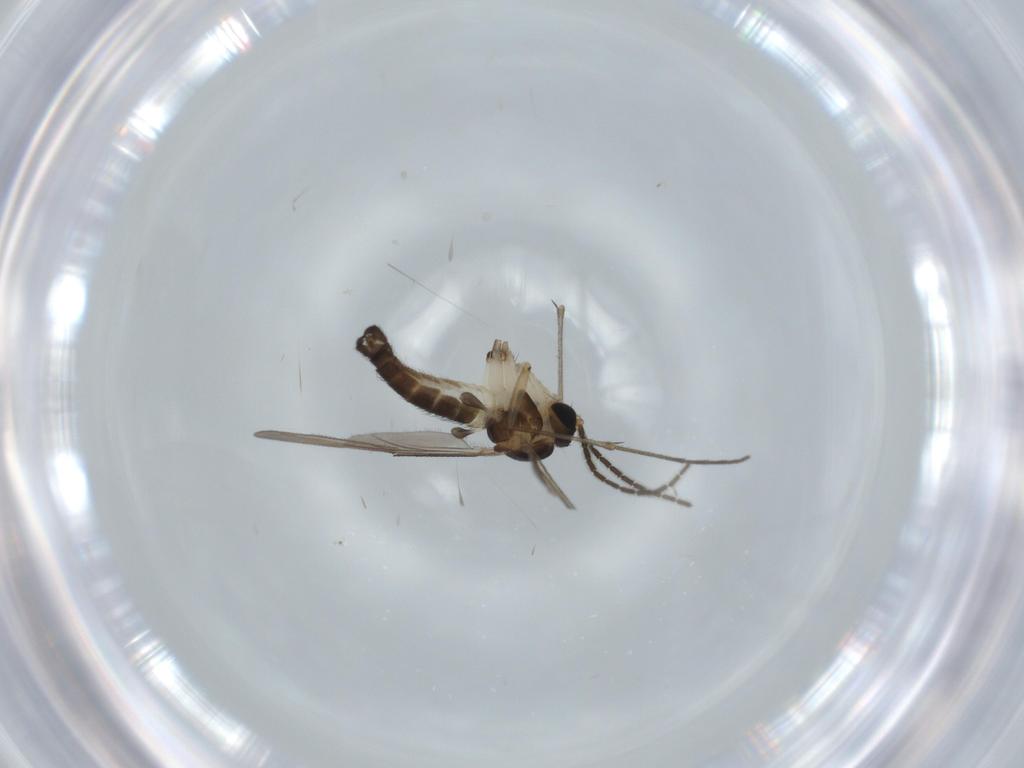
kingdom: Animalia
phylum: Arthropoda
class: Insecta
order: Diptera
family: Sciaridae
